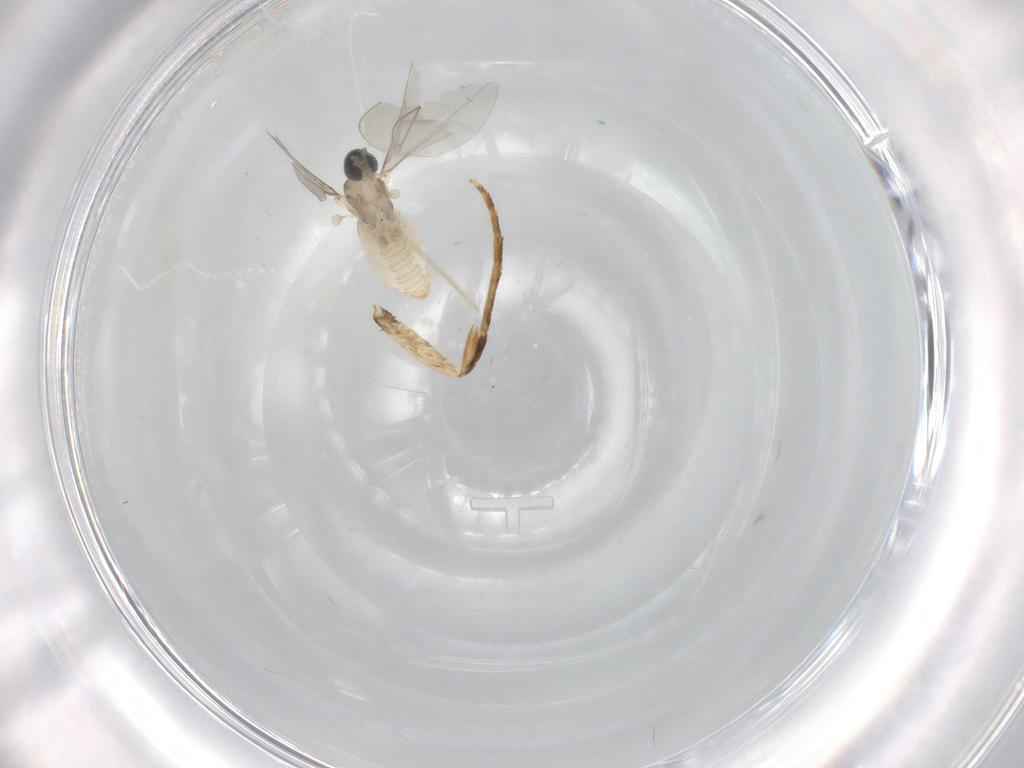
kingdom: Animalia
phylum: Arthropoda
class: Insecta
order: Diptera
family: Cecidomyiidae
